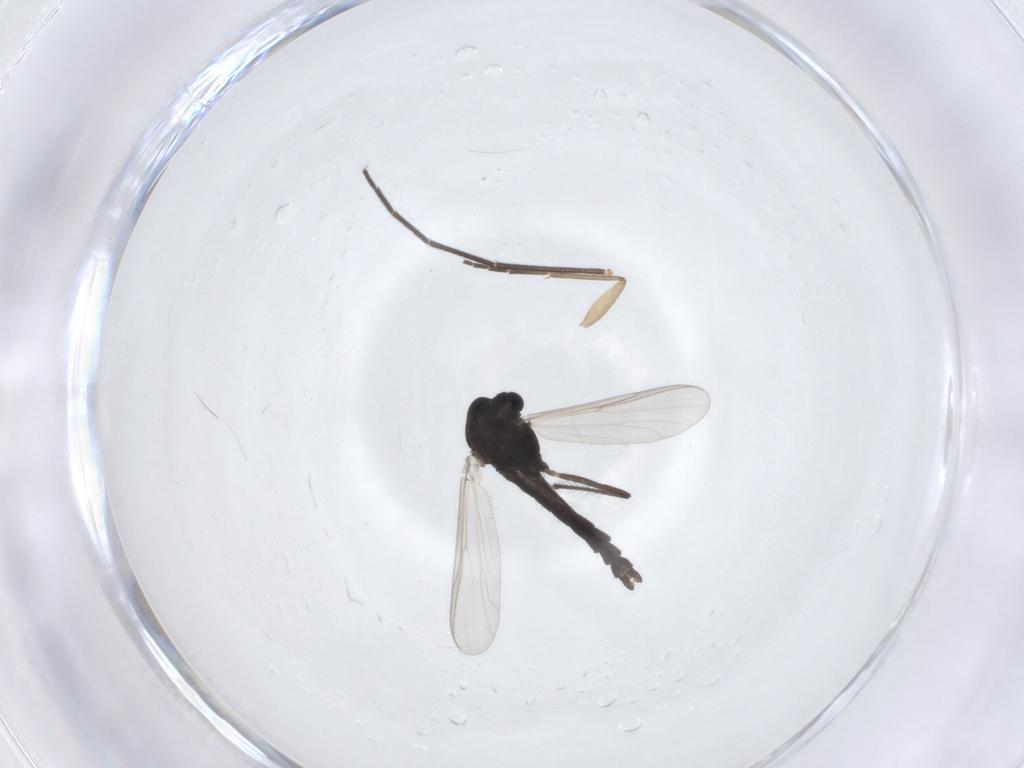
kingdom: Animalia
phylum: Arthropoda
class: Insecta
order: Diptera
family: Sciaridae
